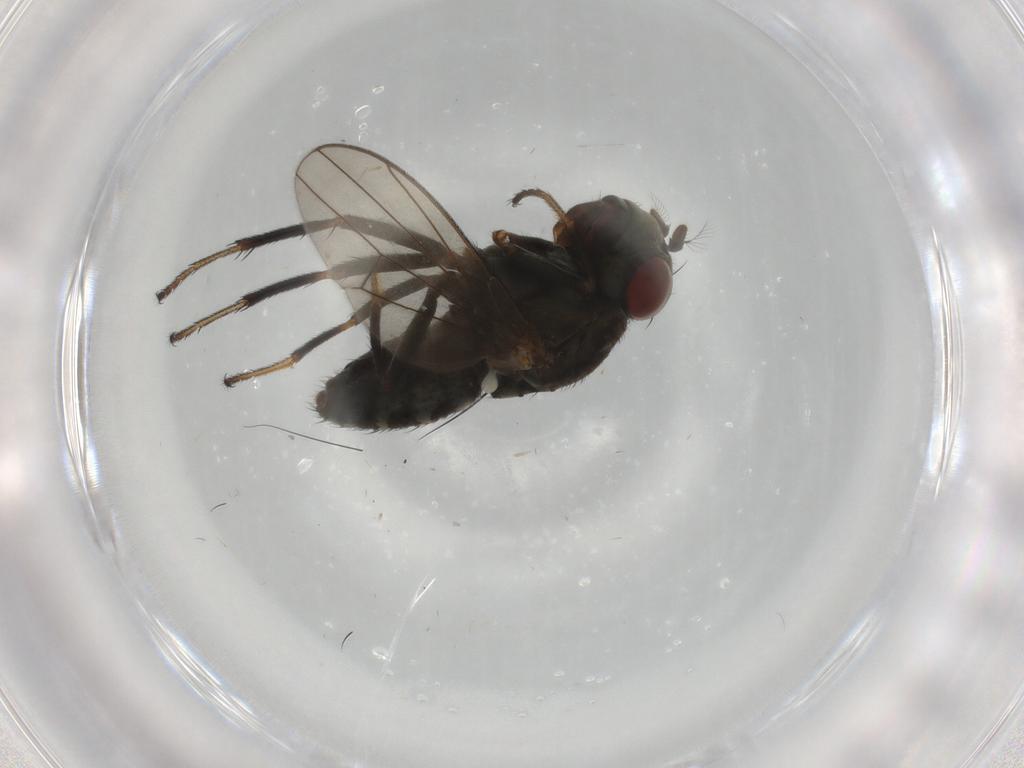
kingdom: Animalia
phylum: Arthropoda
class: Insecta
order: Diptera
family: Ephydridae
